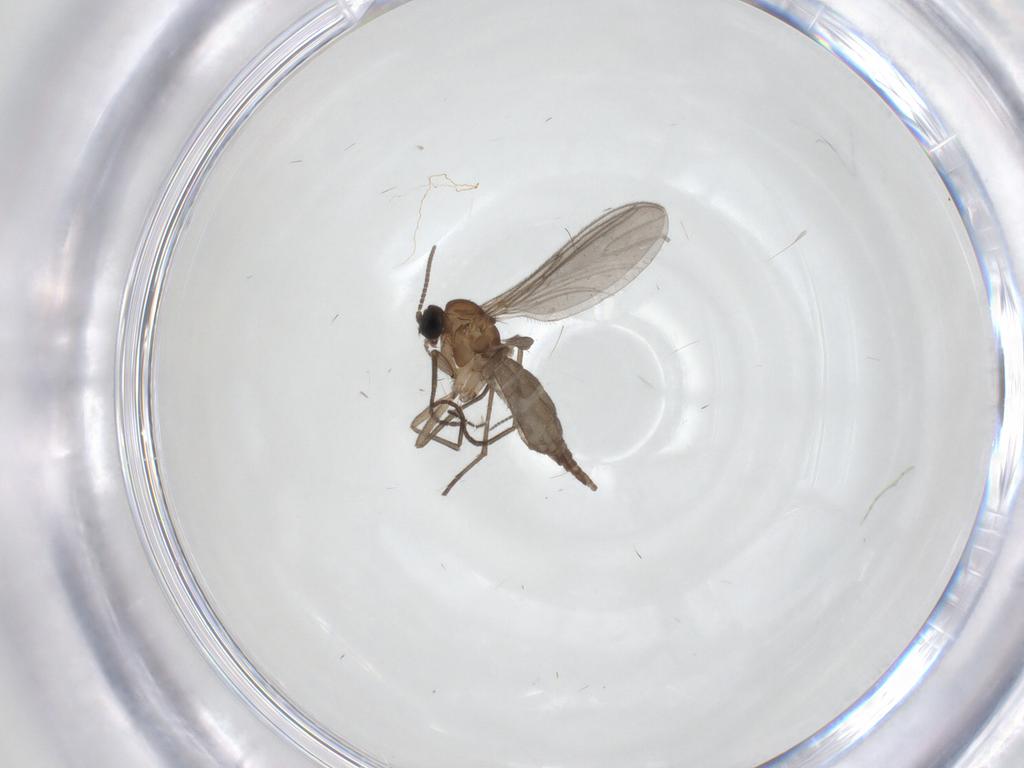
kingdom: Animalia
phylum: Arthropoda
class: Insecta
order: Diptera
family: Sciaridae
